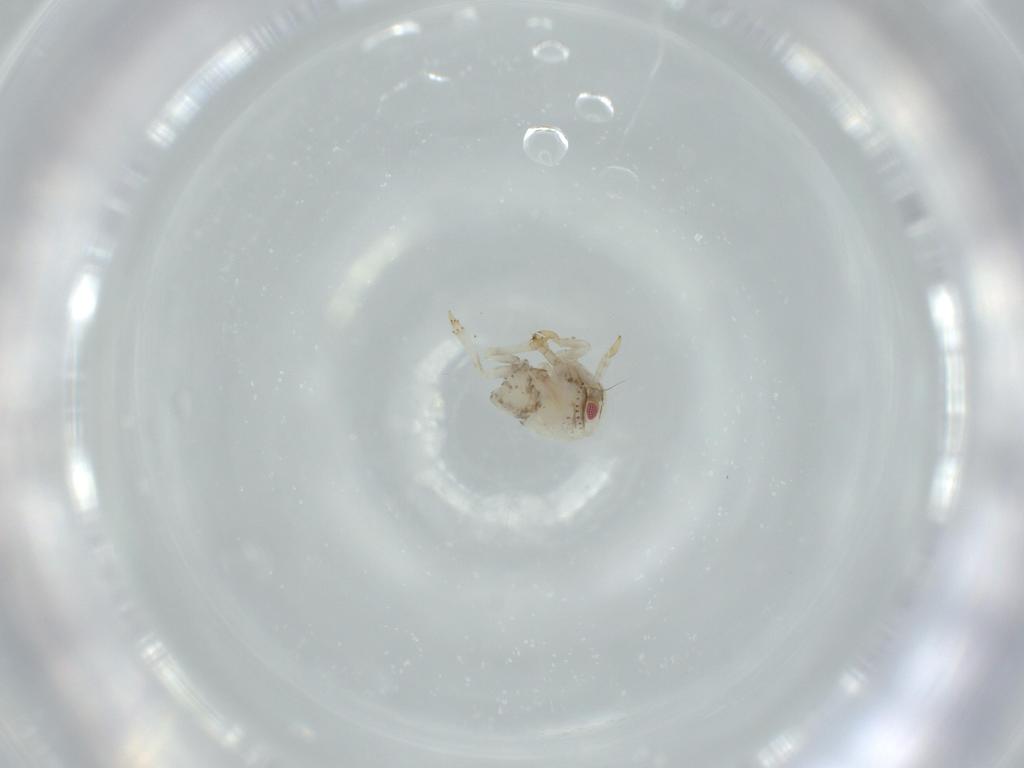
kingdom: Animalia
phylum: Arthropoda
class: Insecta
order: Hemiptera
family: Acanaloniidae
